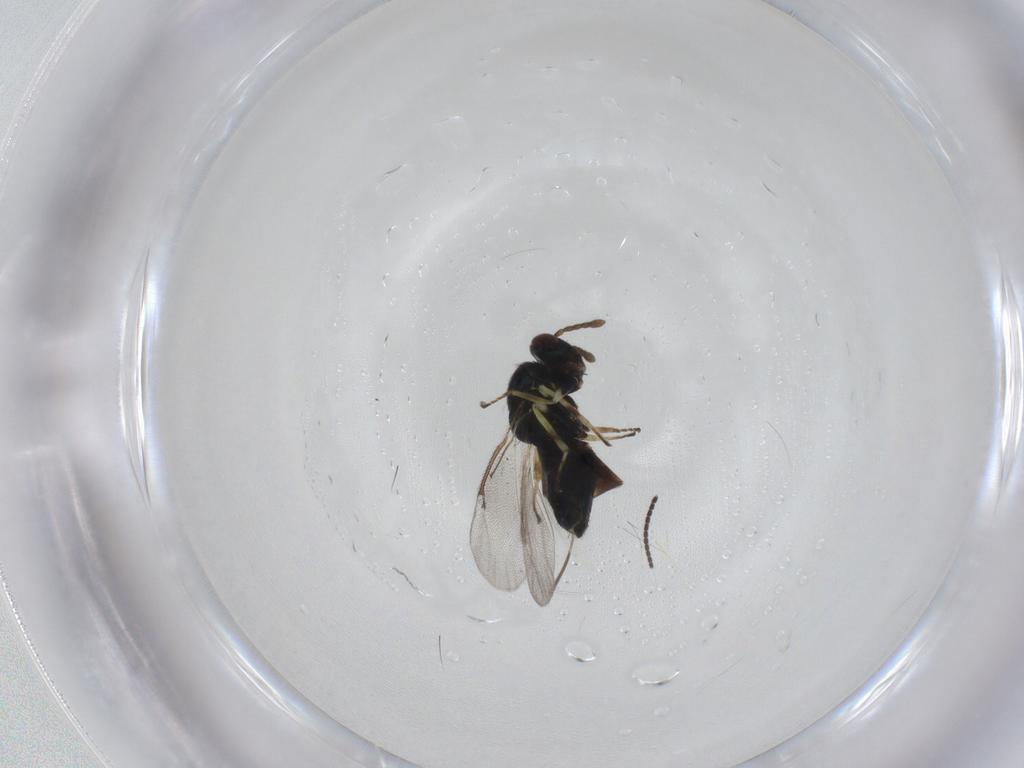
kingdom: Animalia
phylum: Arthropoda
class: Insecta
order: Hymenoptera
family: Eulophidae
